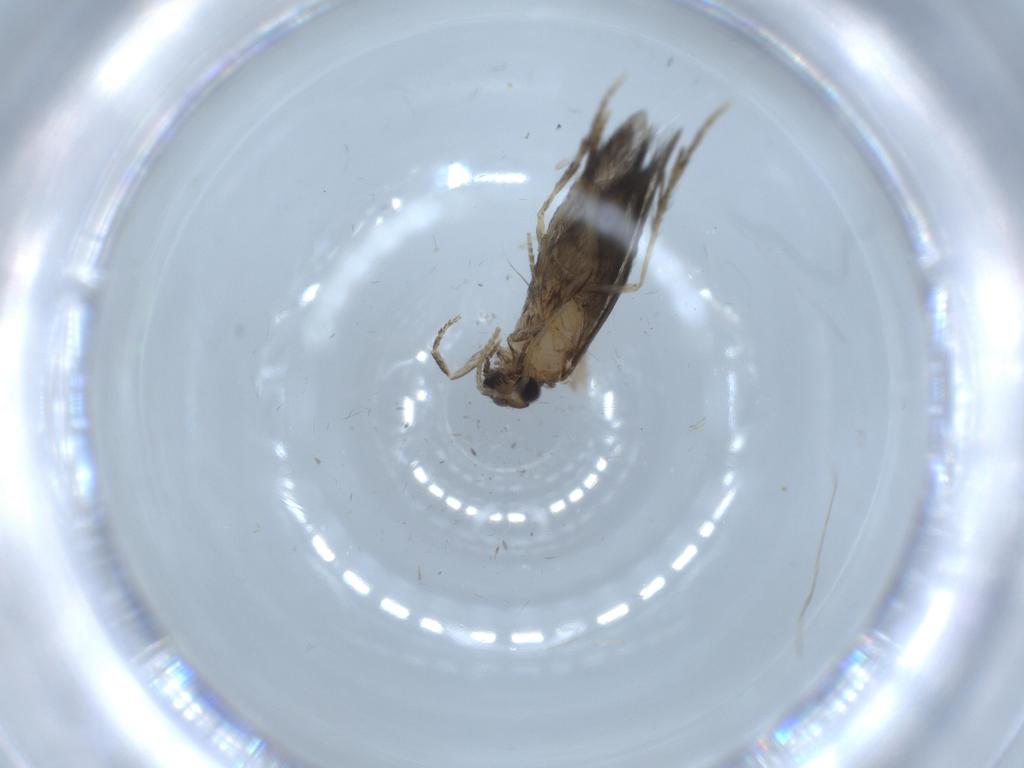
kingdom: Animalia
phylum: Arthropoda
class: Insecta
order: Trichoptera
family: Hydroptilidae
